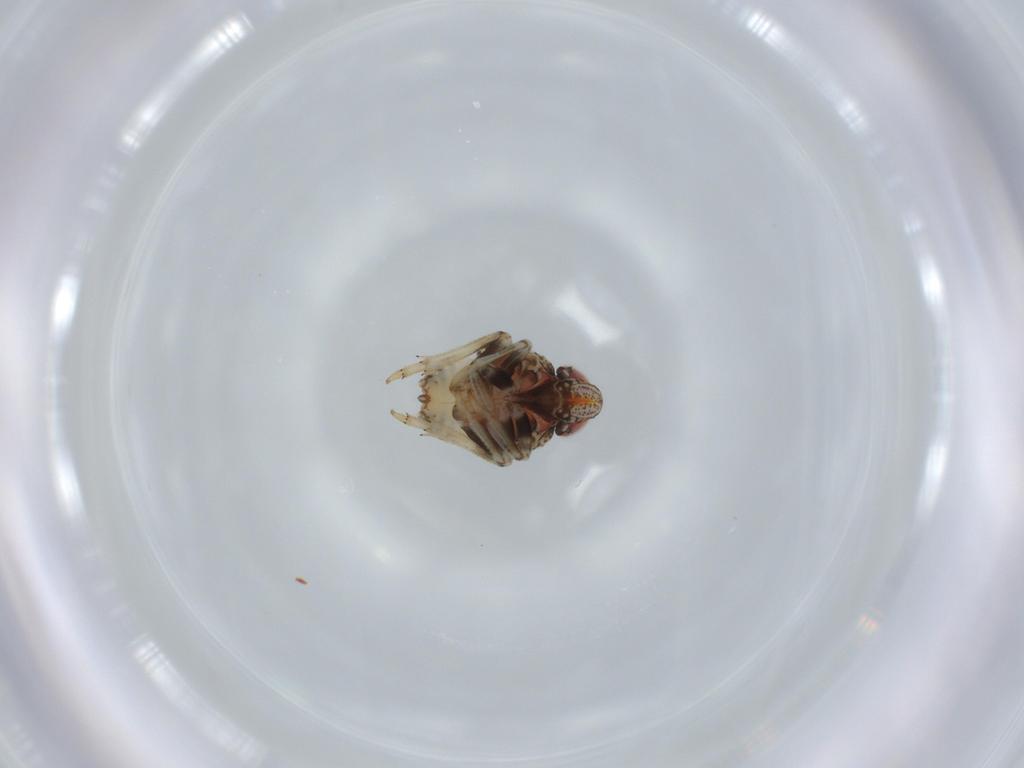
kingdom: Animalia
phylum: Arthropoda
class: Insecta
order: Hemiptera
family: Issidae
